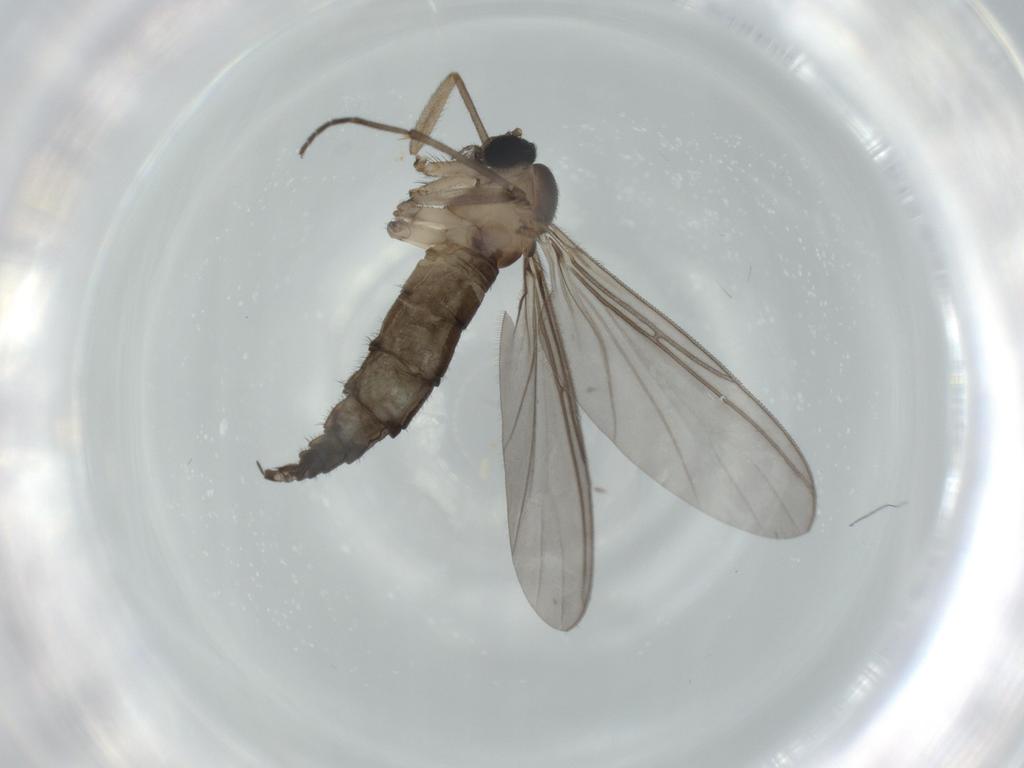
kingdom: Animalia
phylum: Arthropoda
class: Insecta
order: Diptera
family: Sciaridae
